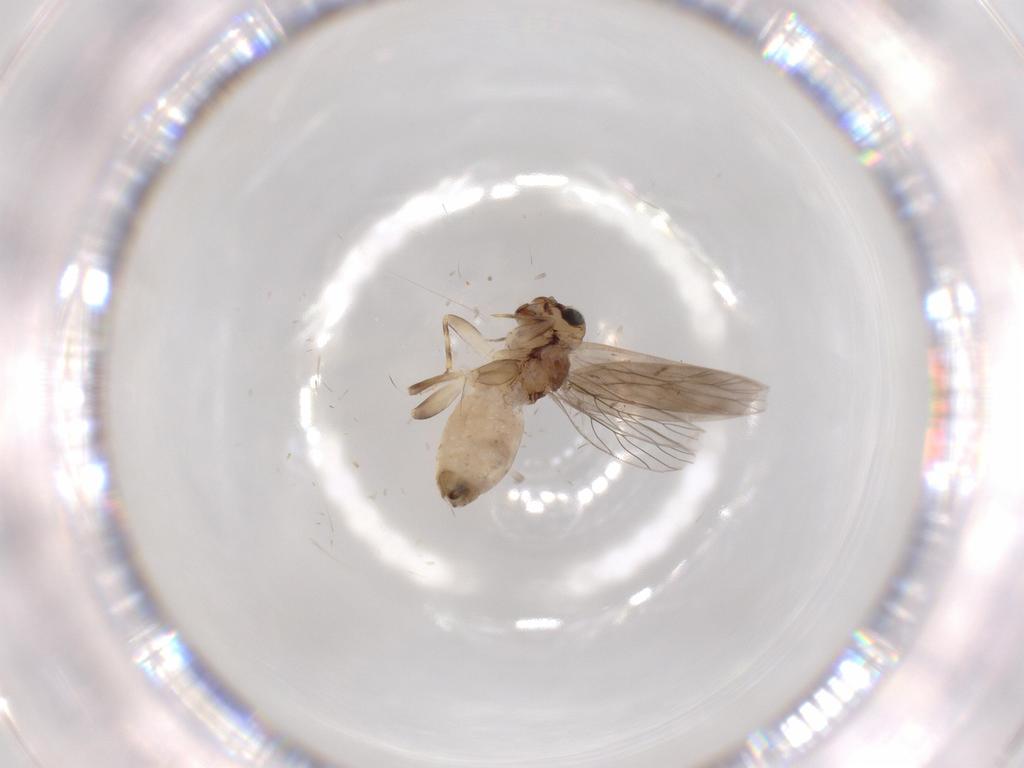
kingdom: Animalia
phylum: Arthropoda
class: Insecta
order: Psocodea
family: Lepidopsocidae
